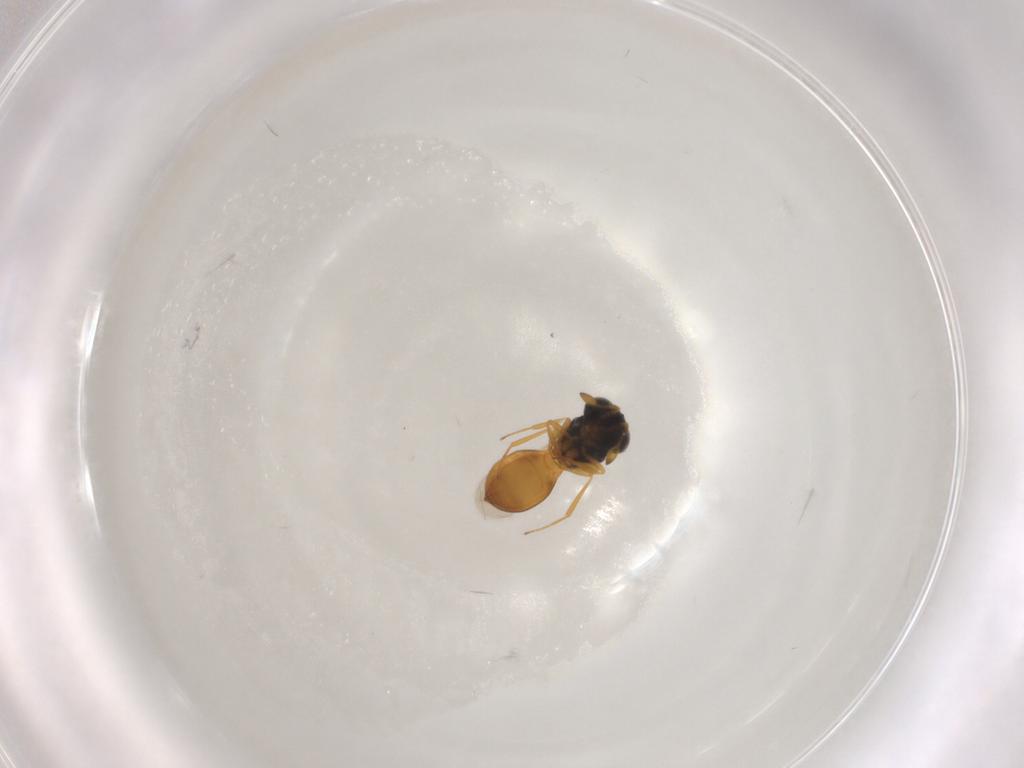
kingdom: Animalia
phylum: Arthropoda
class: Insecta
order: Hymenoptera
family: Scelionidae
